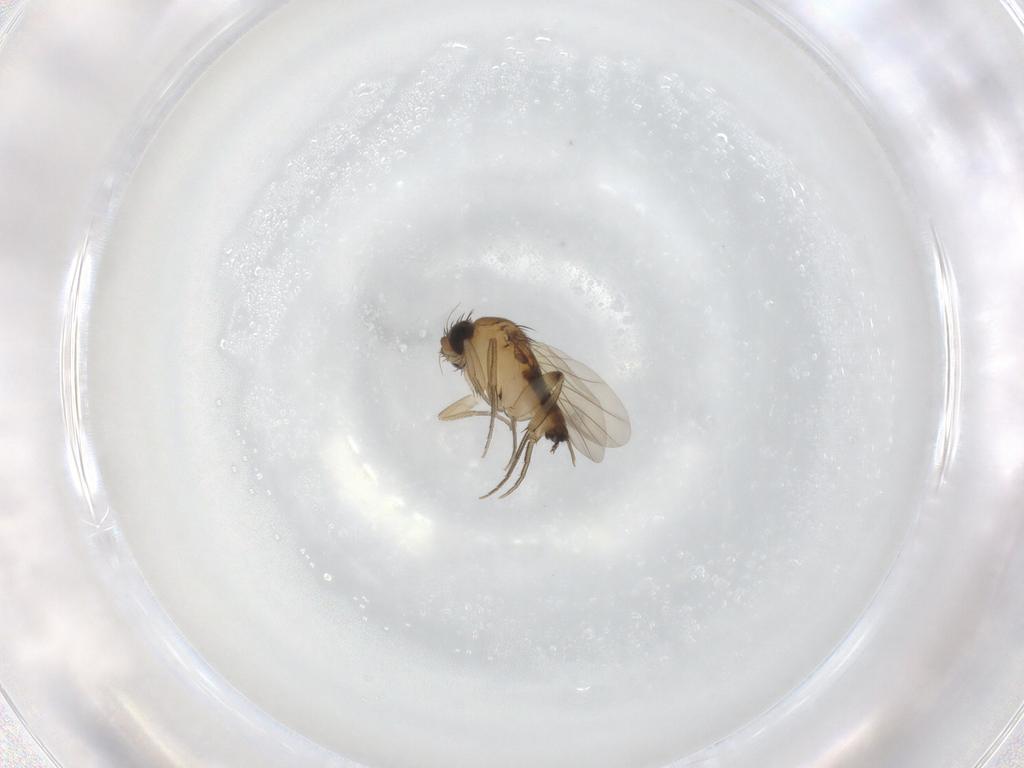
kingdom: Animalia
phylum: Arthropoda
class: Insecta
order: Diptera
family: Phoridae
